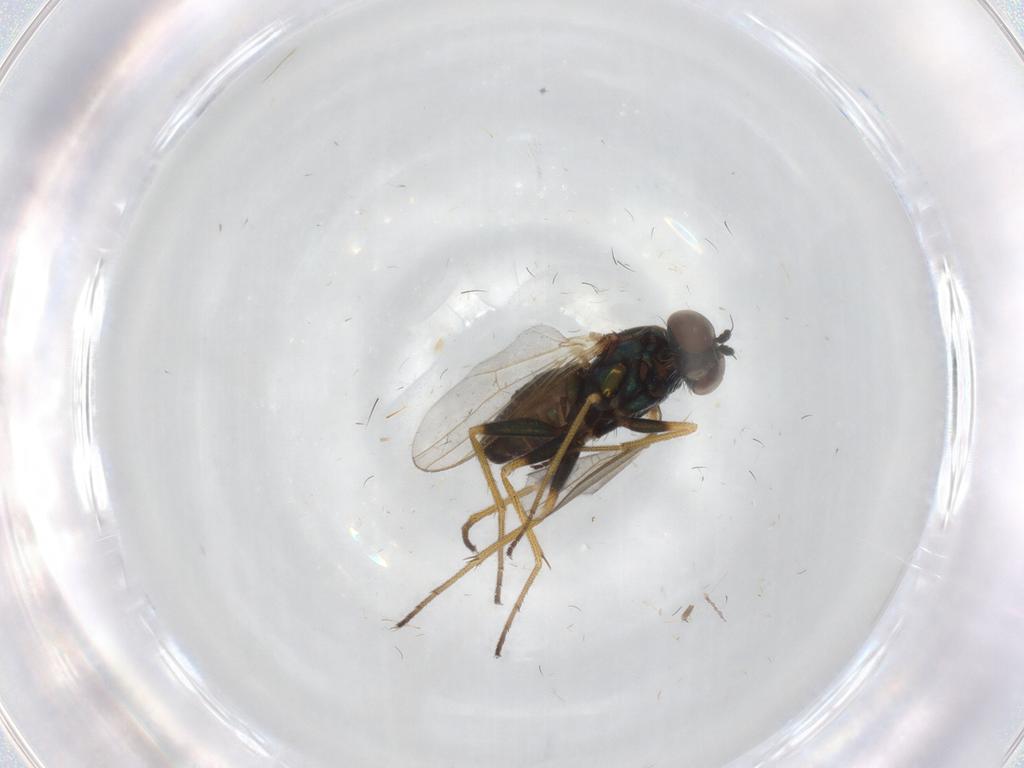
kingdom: Animalia
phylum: Arthropoda
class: Insecta
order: Diptera
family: Dolichopodidae
